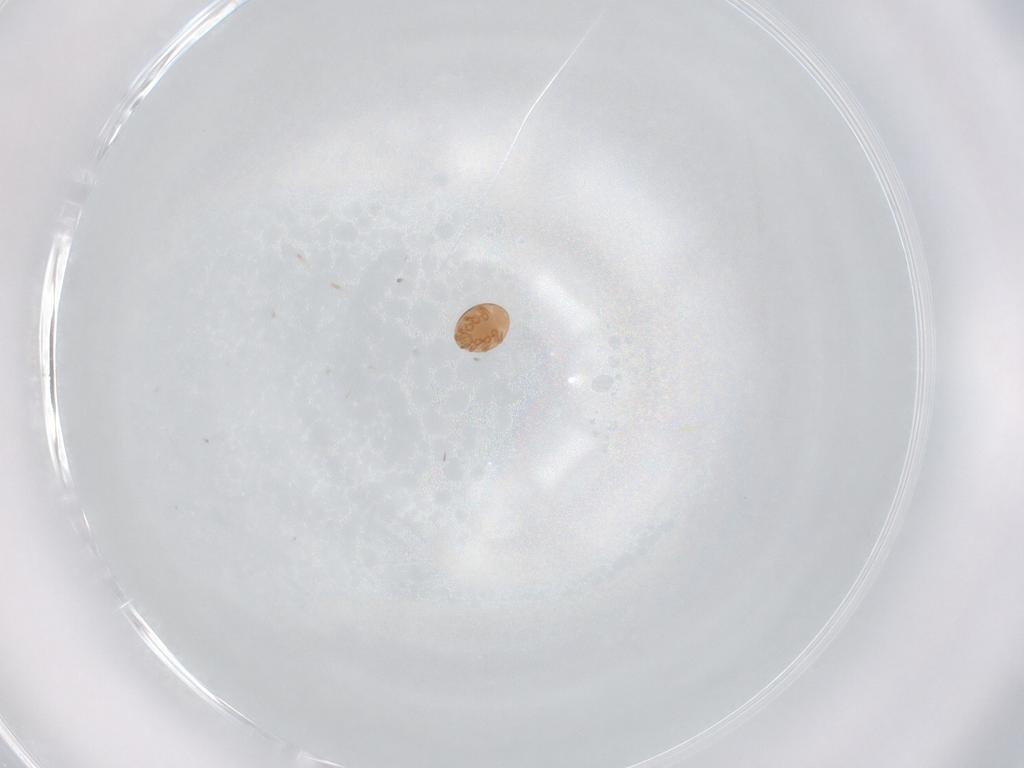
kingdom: Animalia
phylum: Arthropoda
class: Arachnida
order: Mesostigmata
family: Trematuridae
